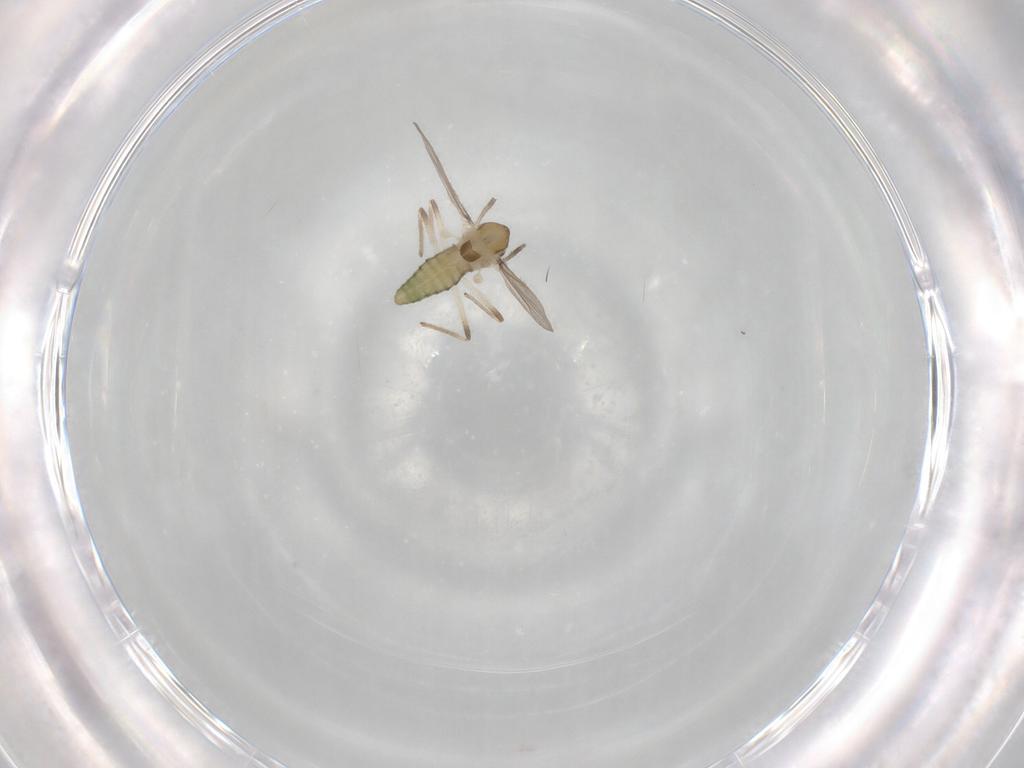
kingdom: Animalia
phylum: Arthropoda
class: Insecta
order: Diptera
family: Chironomidae
